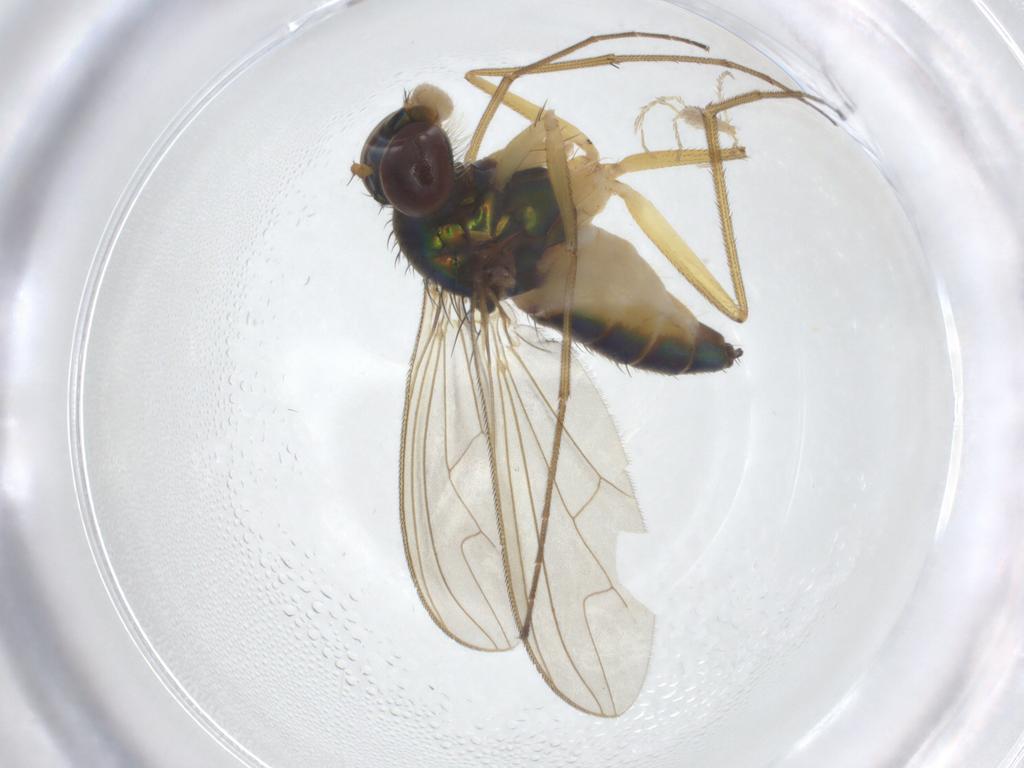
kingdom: Animalia
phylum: Arthropoda
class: Insecta
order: Diptera
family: Dolichopodidae
